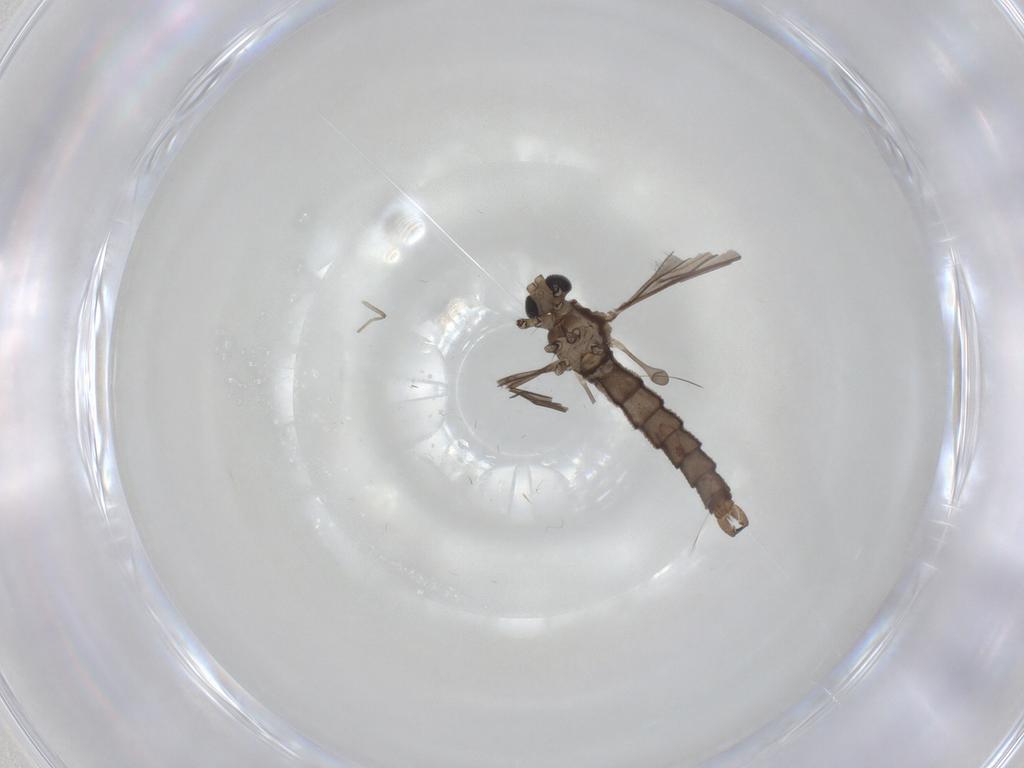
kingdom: Animalia
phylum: Arthropoda
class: Insecta
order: Diptera
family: Limoniidae
